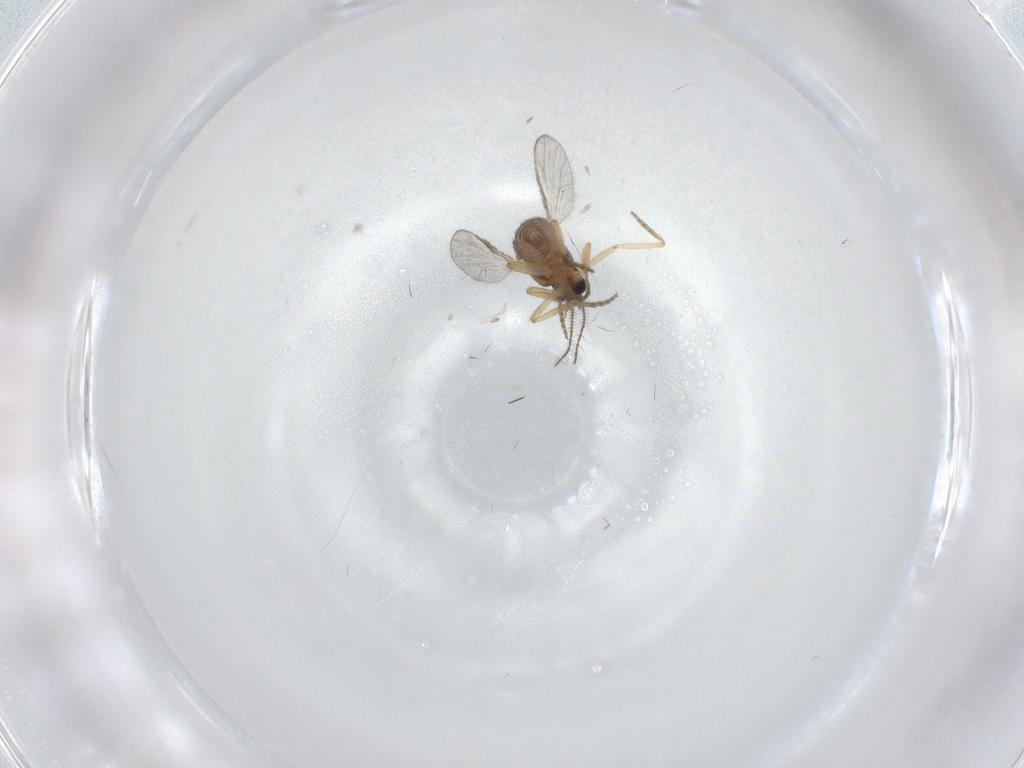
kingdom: Animalia
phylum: Arthropoda
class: Insecta
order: Diptera
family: Ceratopogonidae
